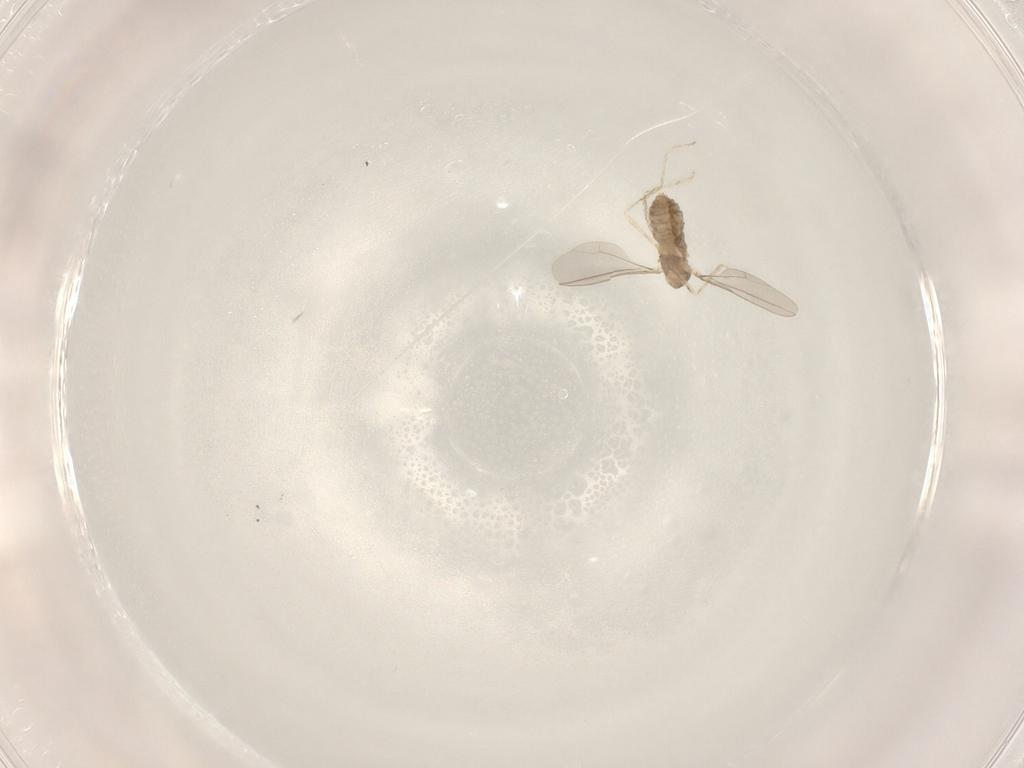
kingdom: Animalia
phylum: Arthropoda
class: Insecta
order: Diptera
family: Cecidomyiidae
